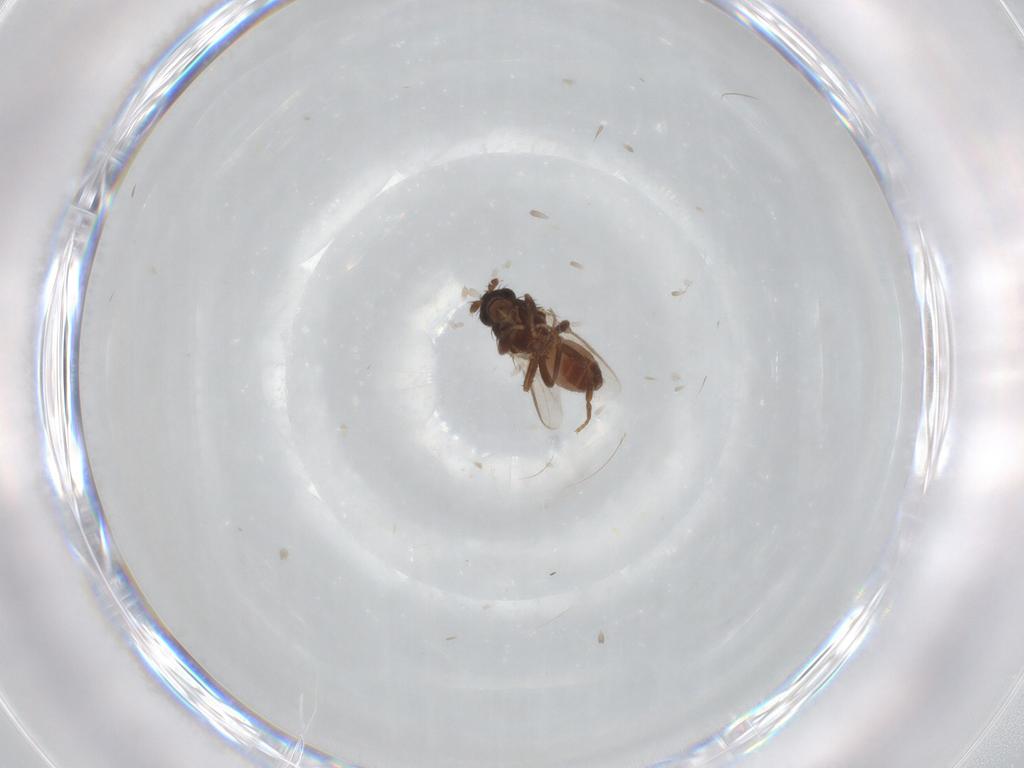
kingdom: Animalia
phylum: Arthropoda
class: Insecta
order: Diptera
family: Sphaeroceridae
